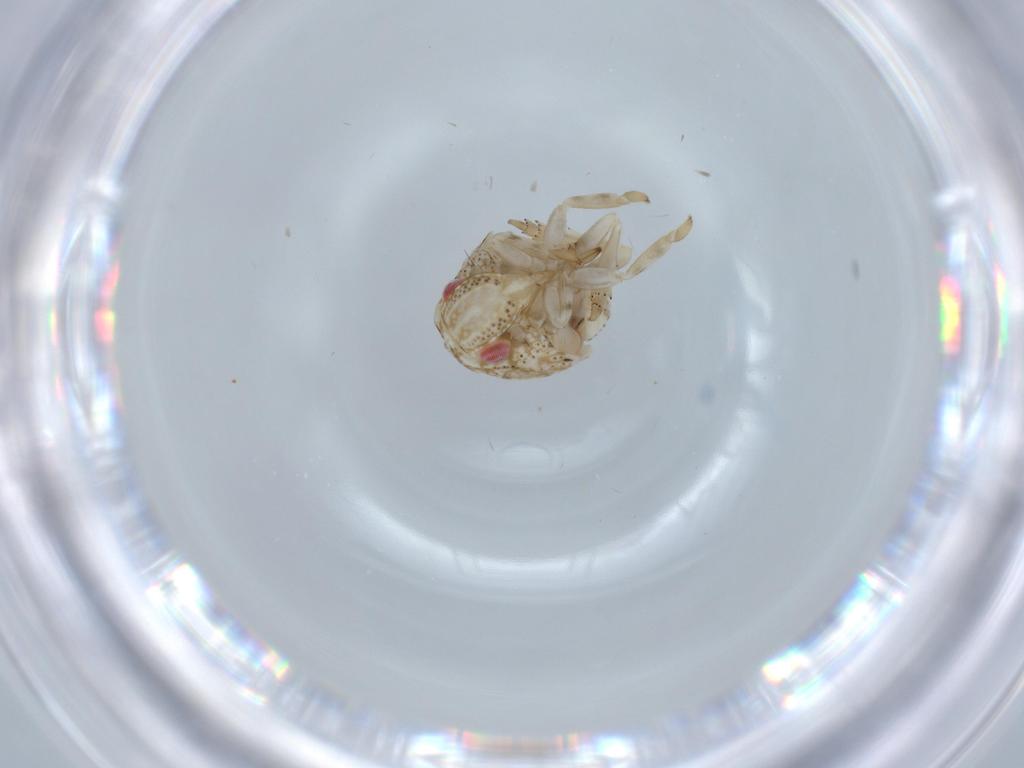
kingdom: Animalia
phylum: Arthropoda
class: Insecta
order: Hemiptera
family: Acanaloniidae
